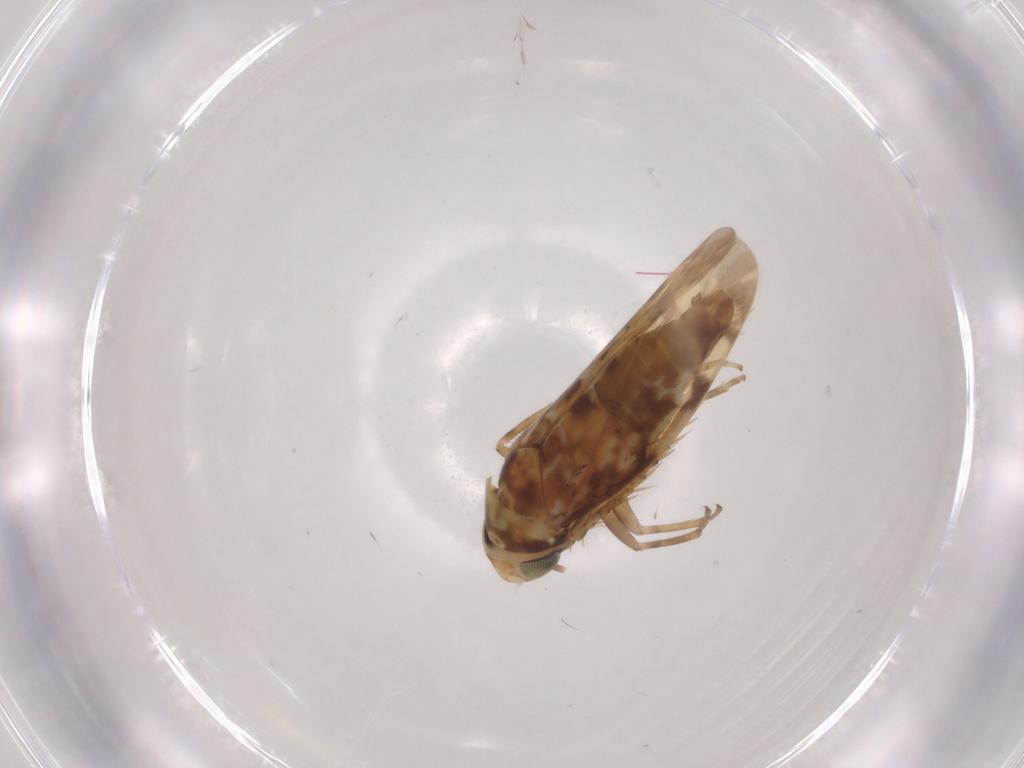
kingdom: Animalia
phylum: Arthropoda
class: Insecta
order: Hemiptera
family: Cicadellidae
